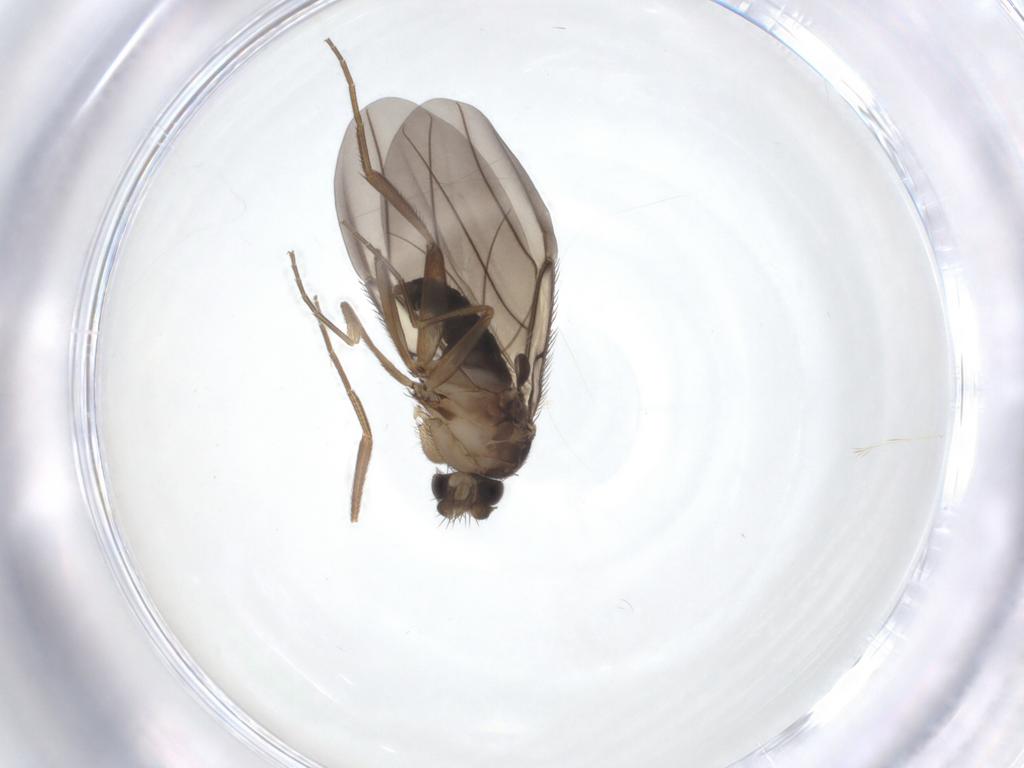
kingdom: Animalia
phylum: Arthropoda
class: Insecta
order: Diptera
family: Phoridae
